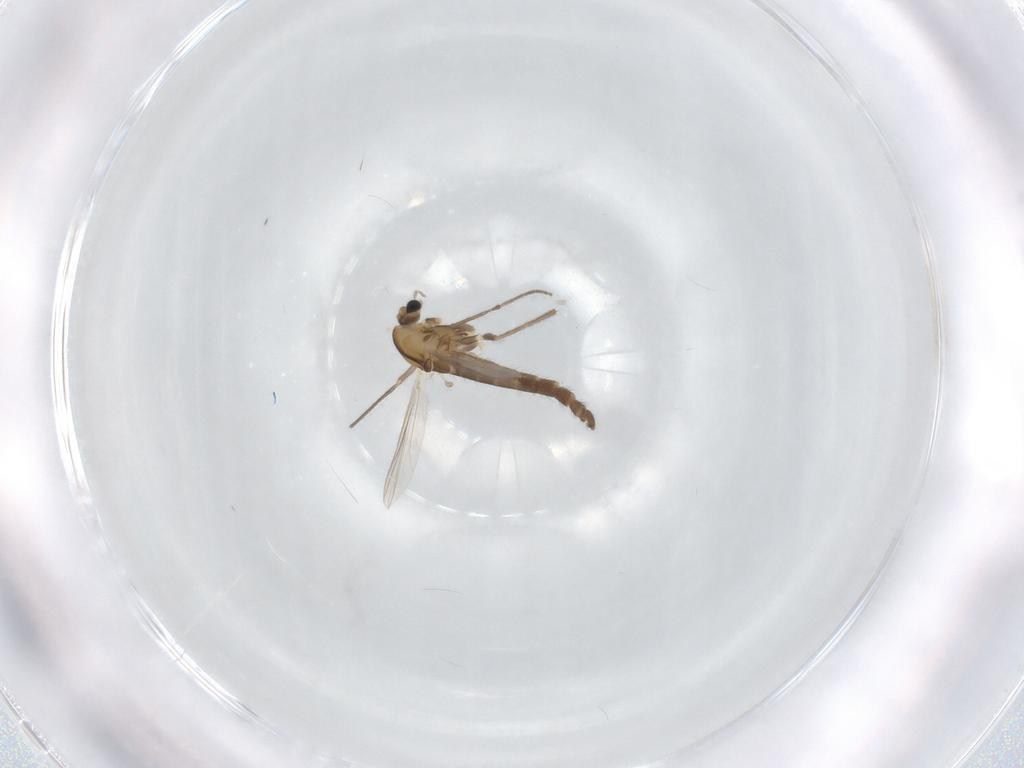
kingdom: Animalia
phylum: Arthropoda
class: Insecta
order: Diptera
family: Chironomidae
